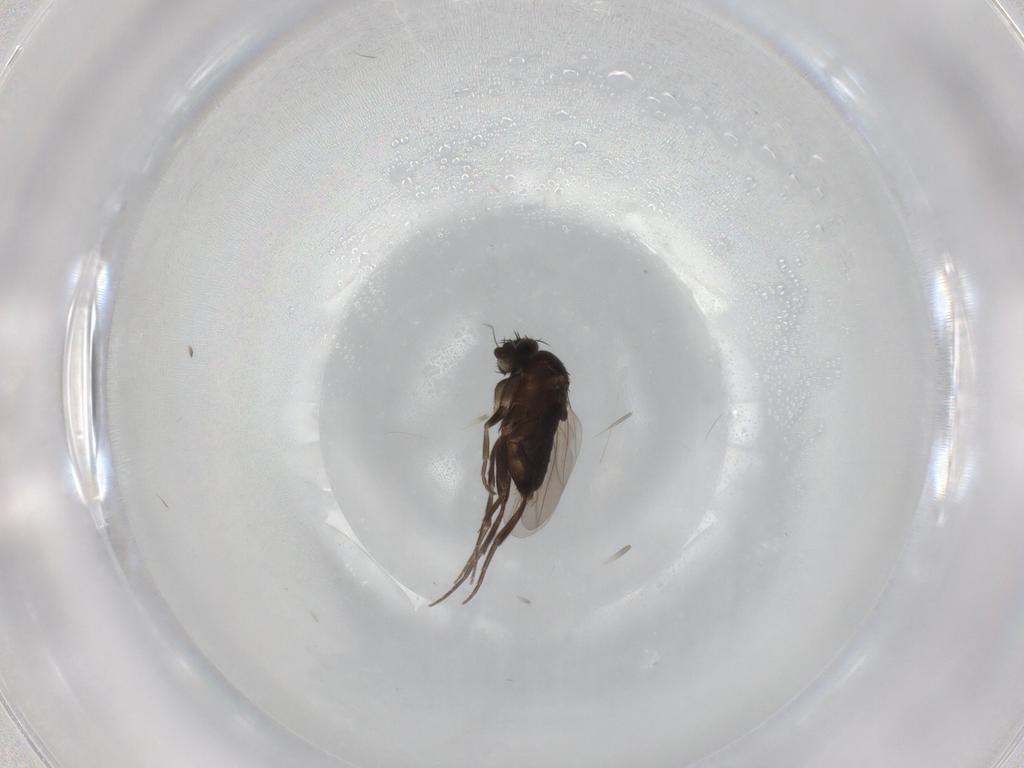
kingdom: Animalia
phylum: Arthropoda
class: Insecta
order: Diptera
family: Phoridae
